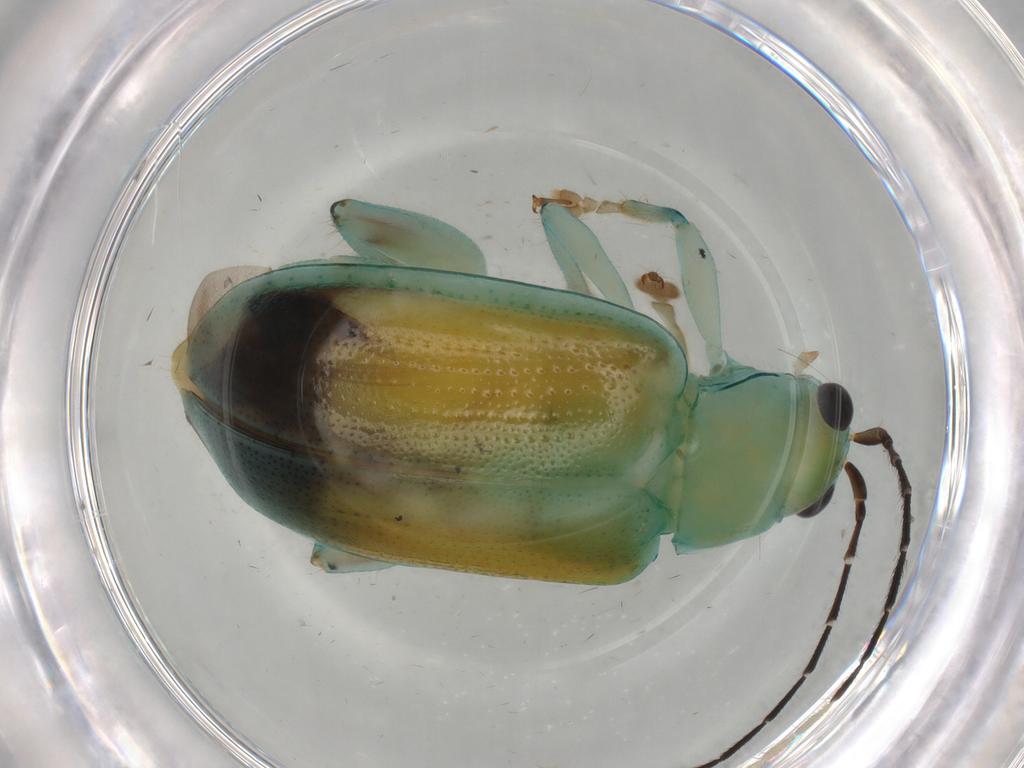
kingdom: Animalia
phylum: Arthropoda
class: Insecta
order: Coleoptera
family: Chrysomelidae
